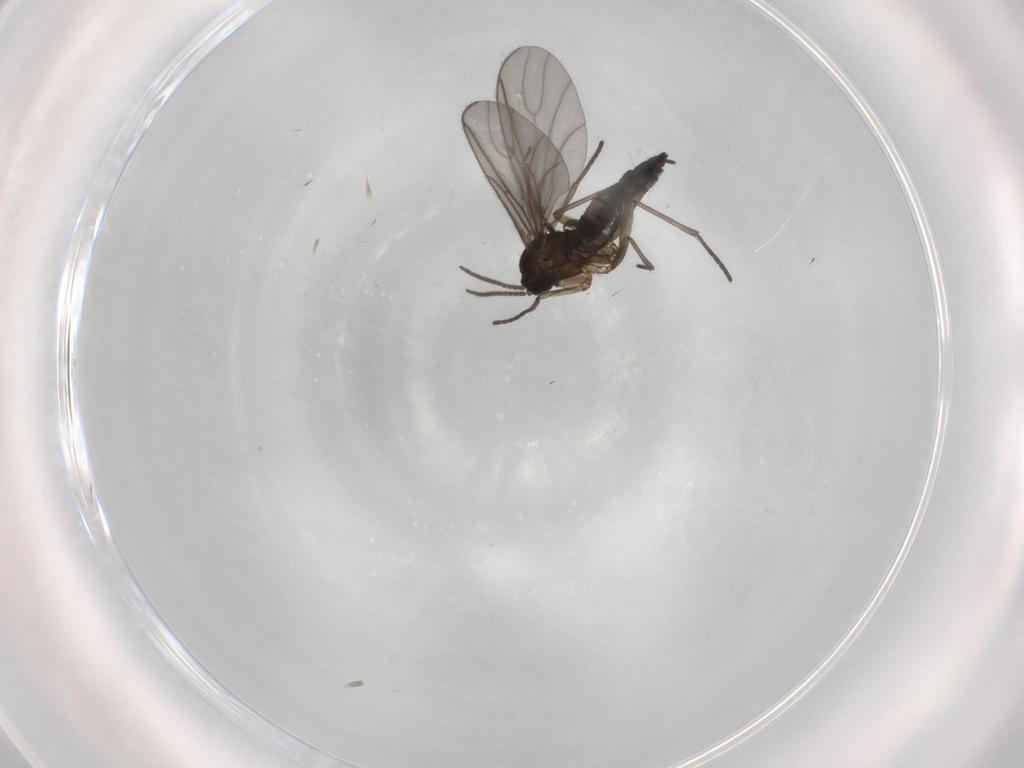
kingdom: Animalia
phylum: Arthropoda
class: Insecta
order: Diptera
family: Sciaridae
